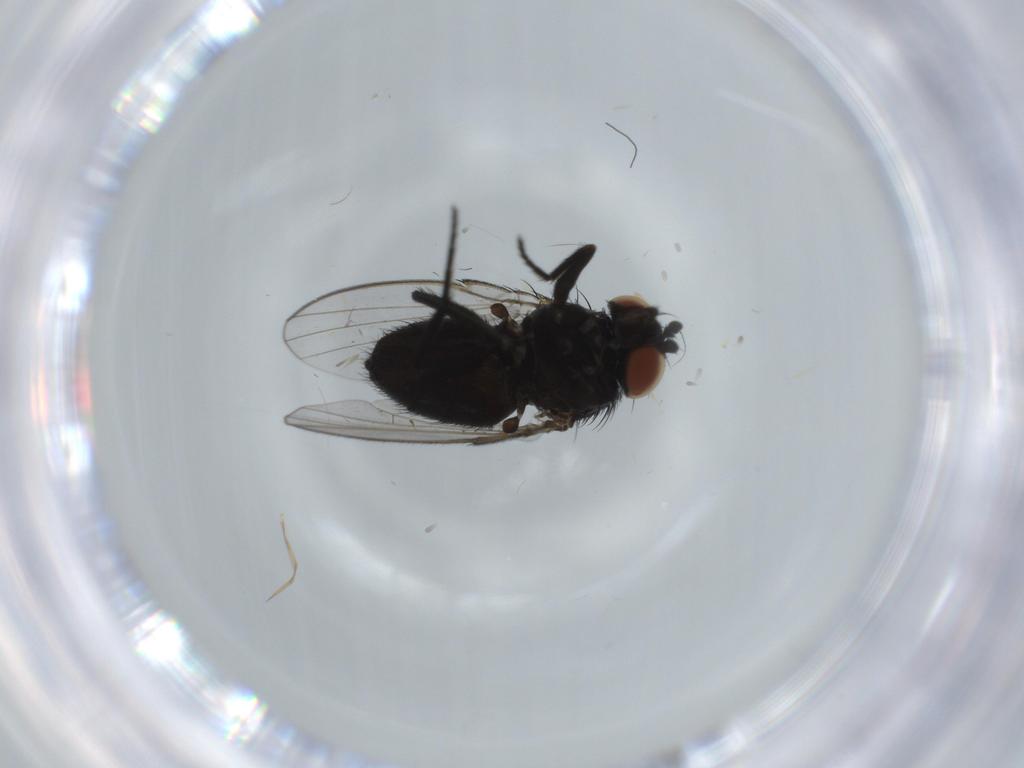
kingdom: Animalia
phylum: Arthropoda
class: Insecta
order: Diptera
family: Milichiidae
